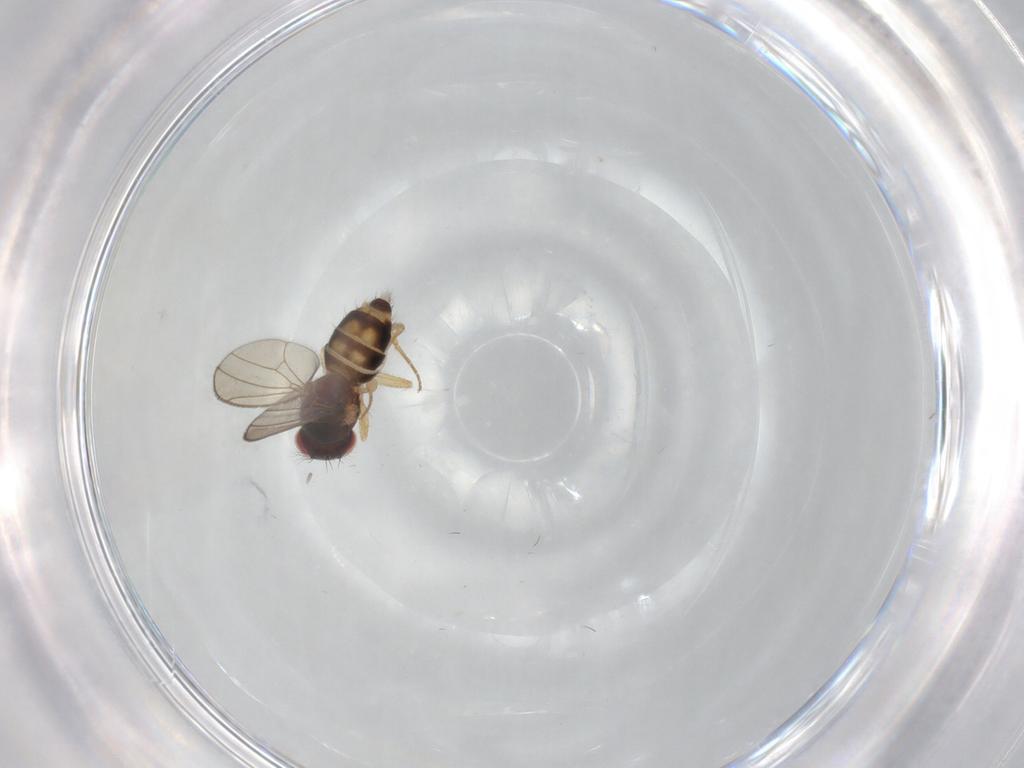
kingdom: Animalia
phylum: Arthropoda
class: Insecta
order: Diptera
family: Drosophilidae
